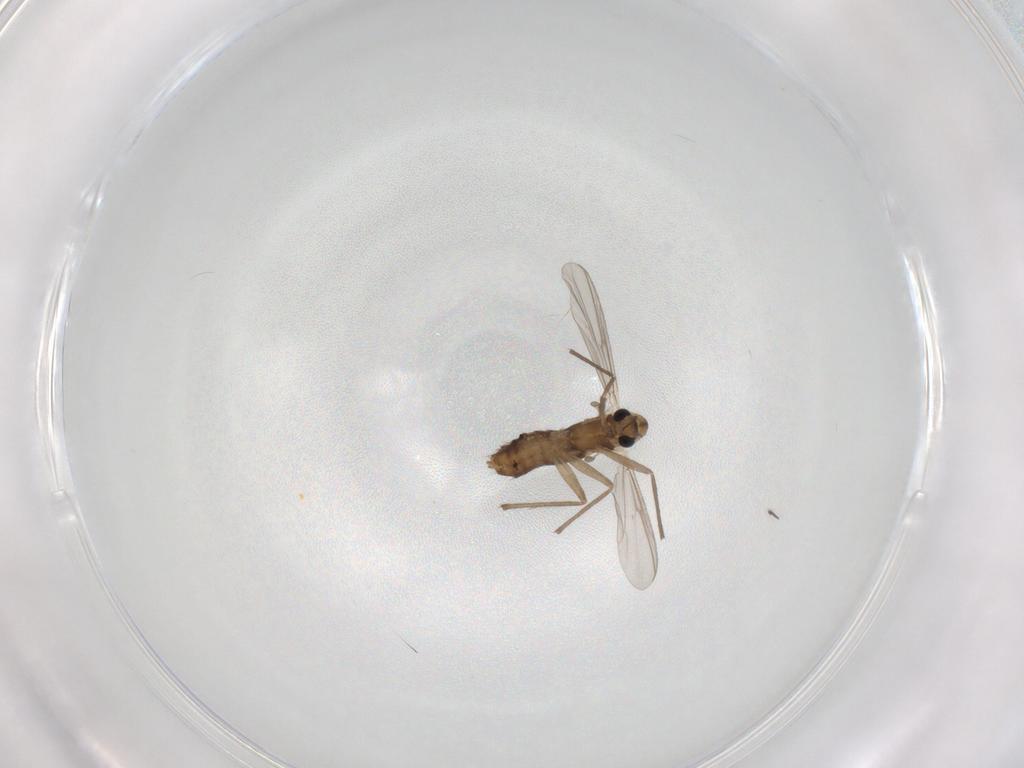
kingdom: Animalia
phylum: Arthropoda
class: Insecta
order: Diptera
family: Chironomidae
